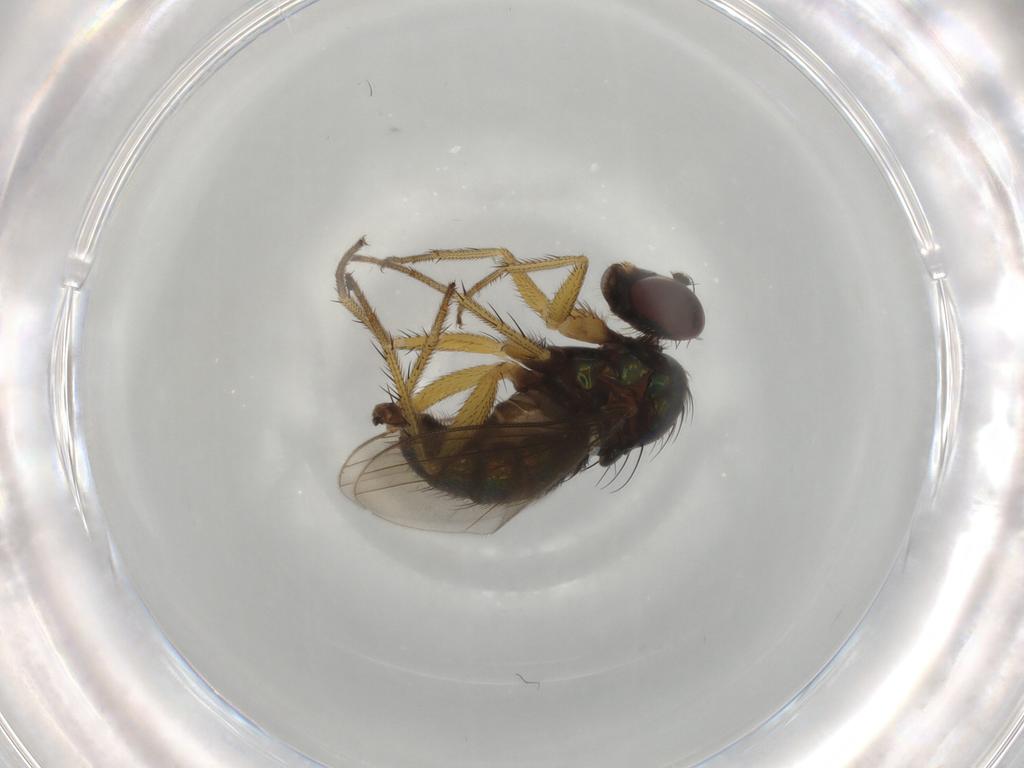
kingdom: Animalia
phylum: Arthropoda
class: Insecta
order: Diptera
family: Dolichopodidae
